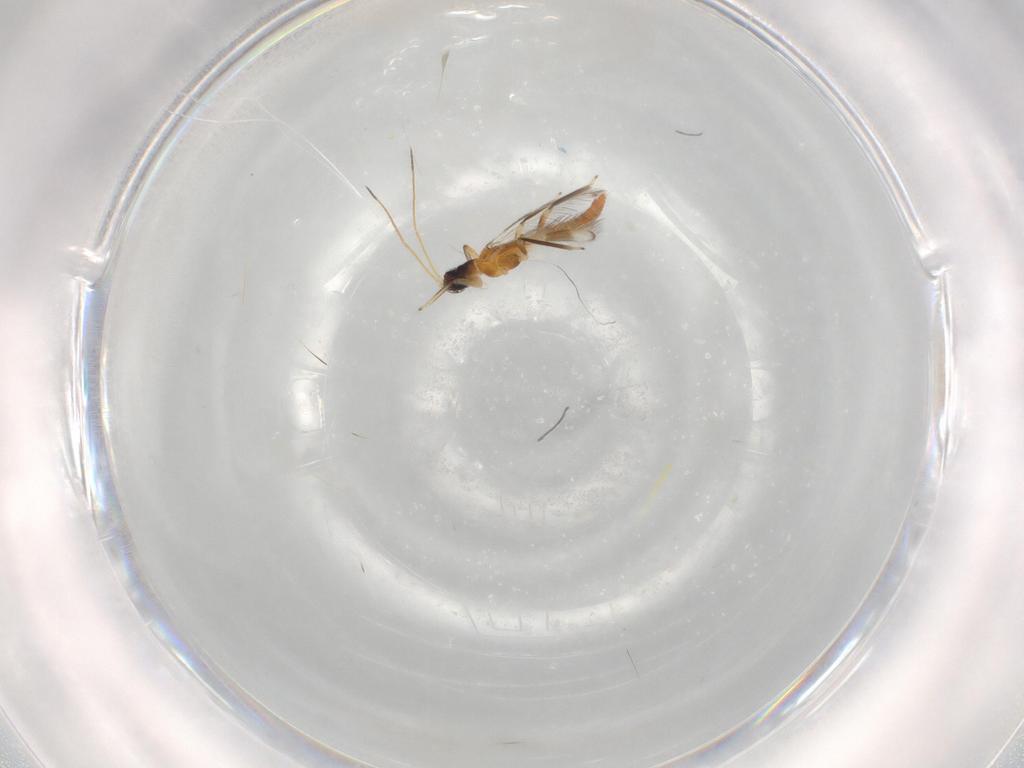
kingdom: Animalia
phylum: Arthropoda
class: Insecta
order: Thysanoptera
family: Aeolothripidae
